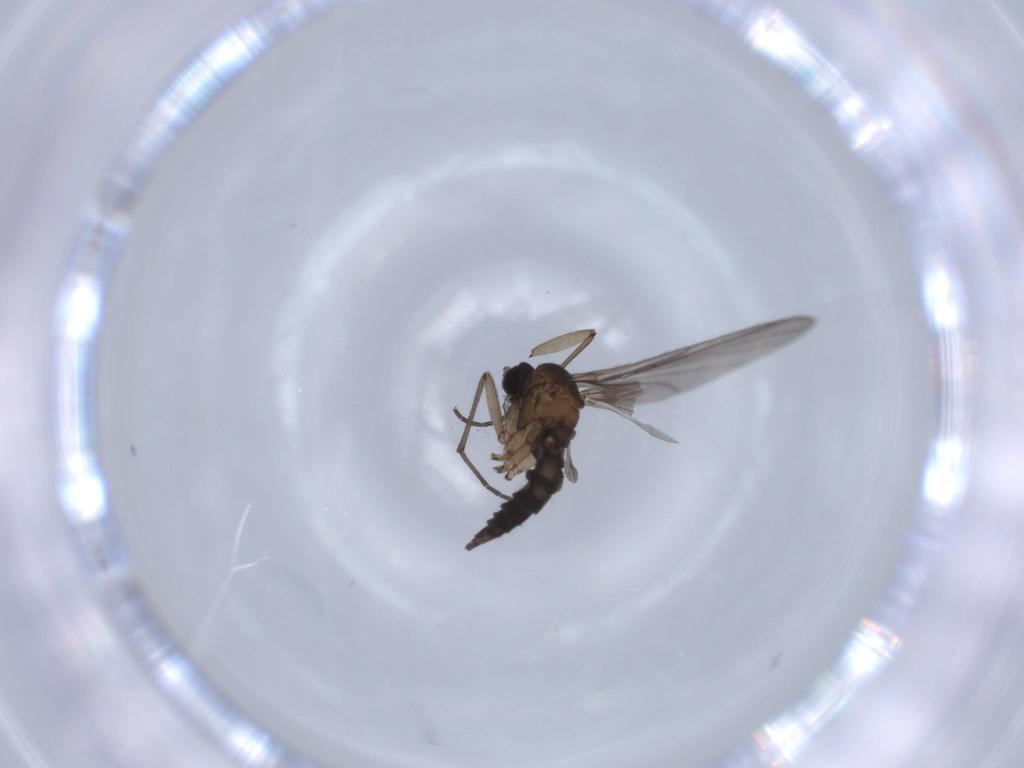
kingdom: Animalia
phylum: Arthropoda
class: Insecta
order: Diptera
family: Sciaridae
